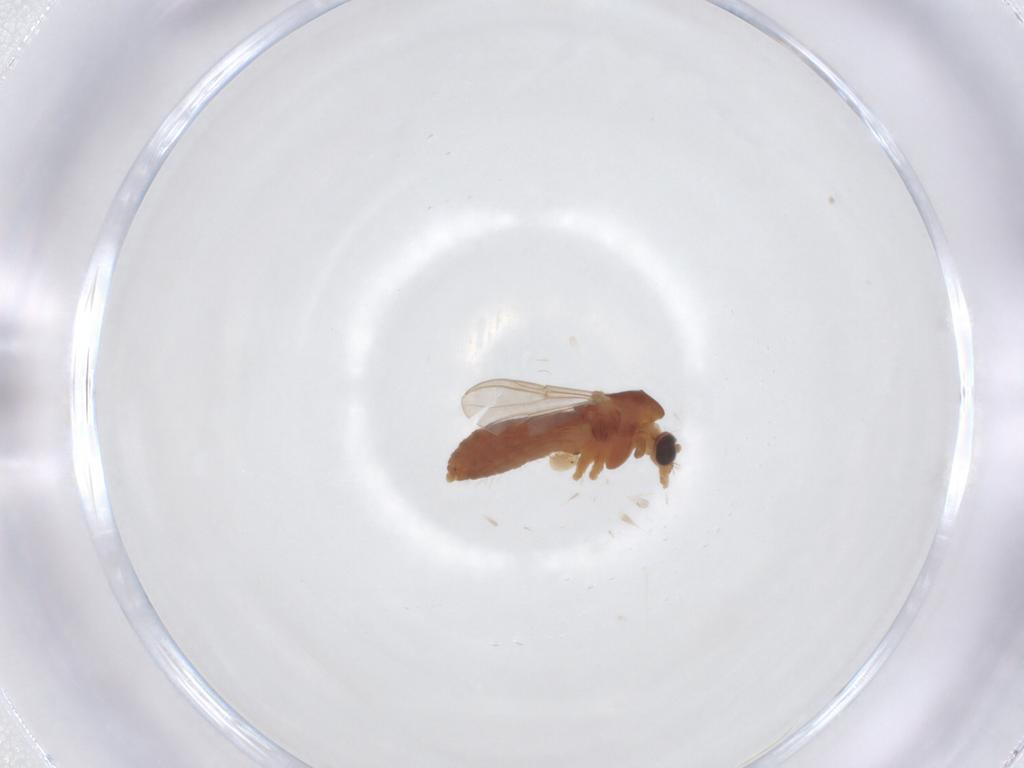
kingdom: Animalia
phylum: Arthropoda
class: Insecta
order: Diptera
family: Chironomidae
